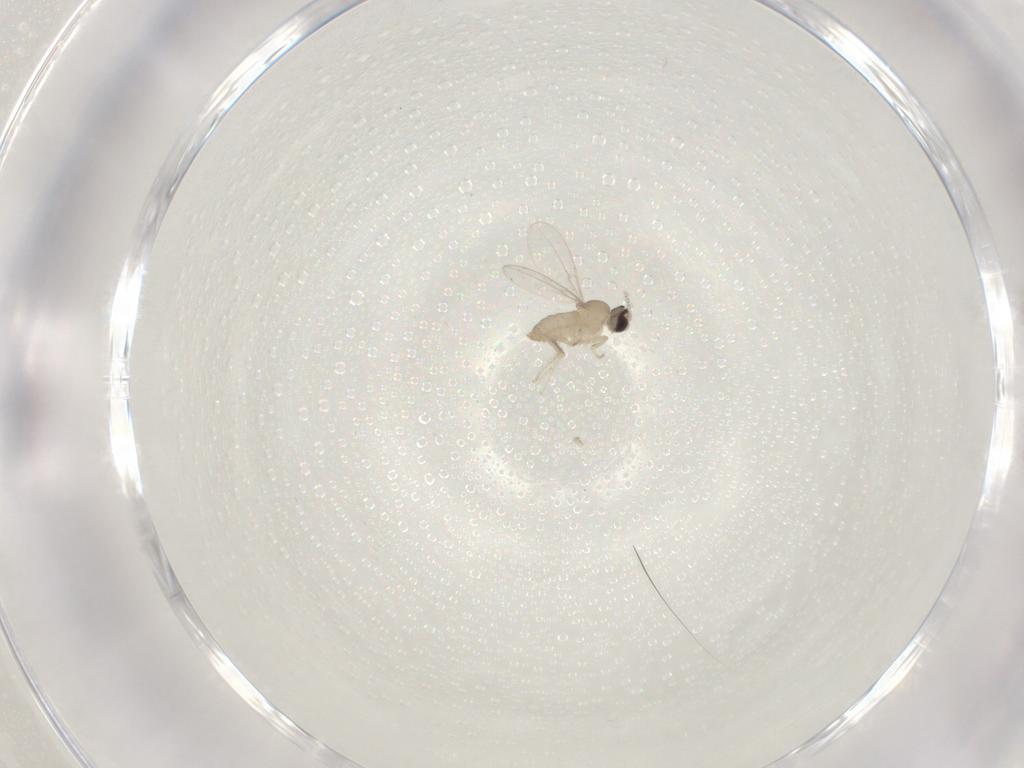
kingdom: Animalia
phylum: Arthropoda
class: Insecta
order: Diptera
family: Cecidomyiidae
